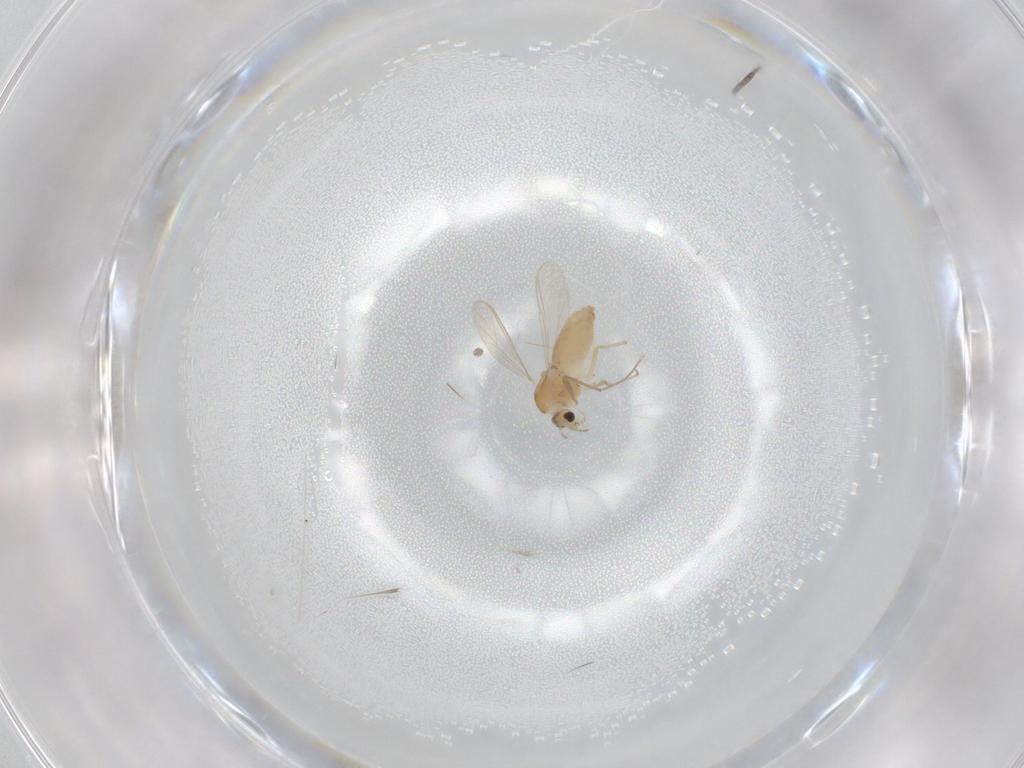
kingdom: Animalia
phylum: Arthropoda
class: Insecta
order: Diptera
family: Chironomidae
